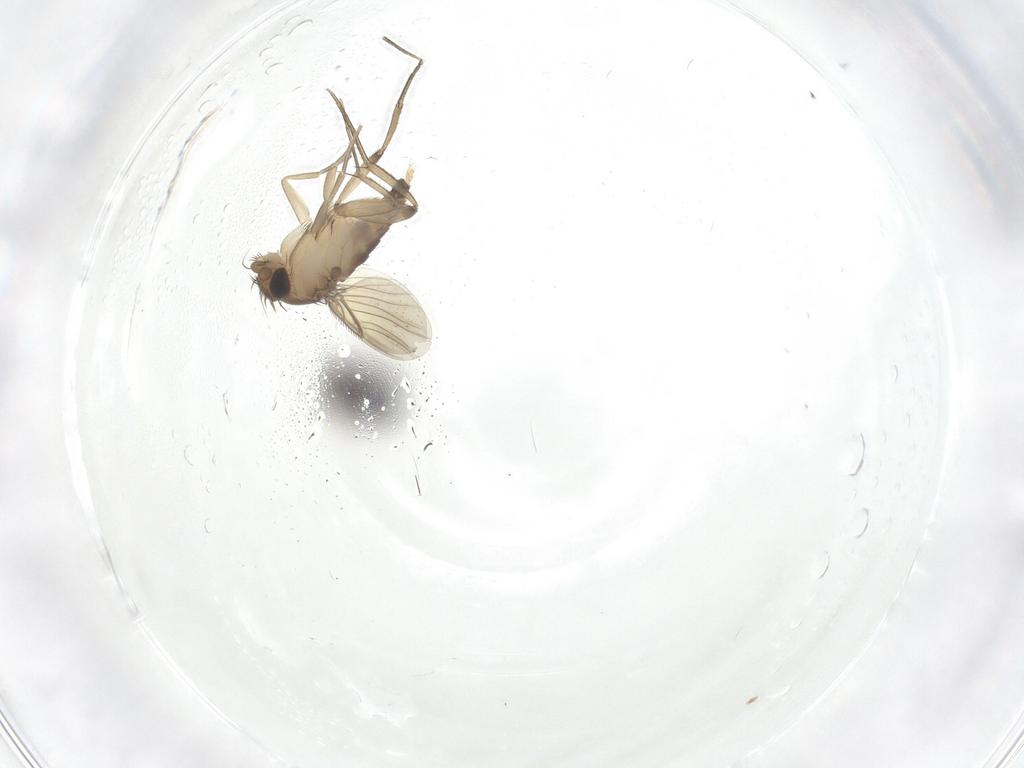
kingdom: Animalia
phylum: Arthropoda
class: Insecta
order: Diptera
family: Phoridae
